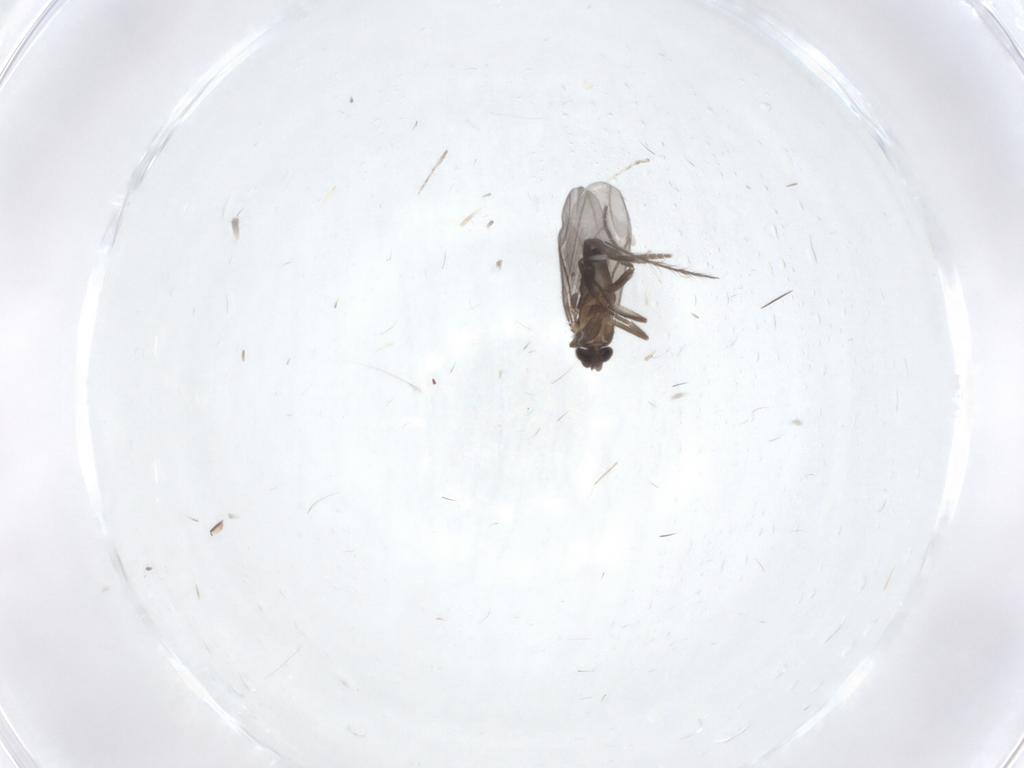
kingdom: Animalia
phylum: Arthropoda
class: Insecta
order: Diptera
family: Phoridae
